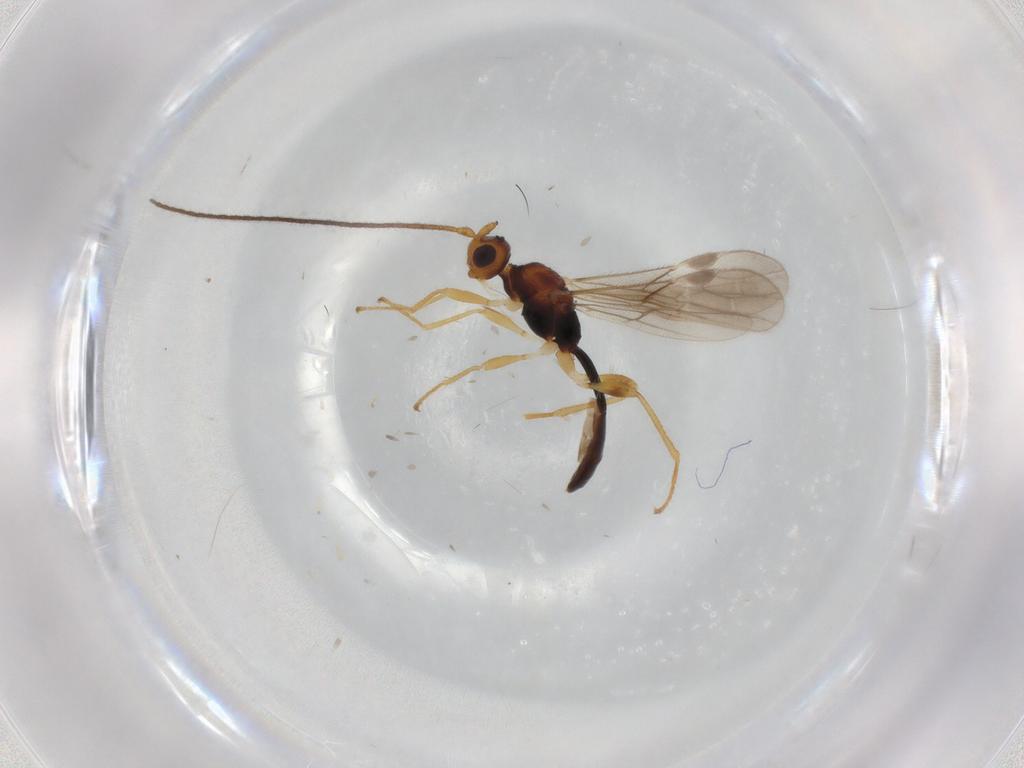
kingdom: Animalia
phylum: Arthropoda
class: Insecta
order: Hymenoptera
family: Braconidae
